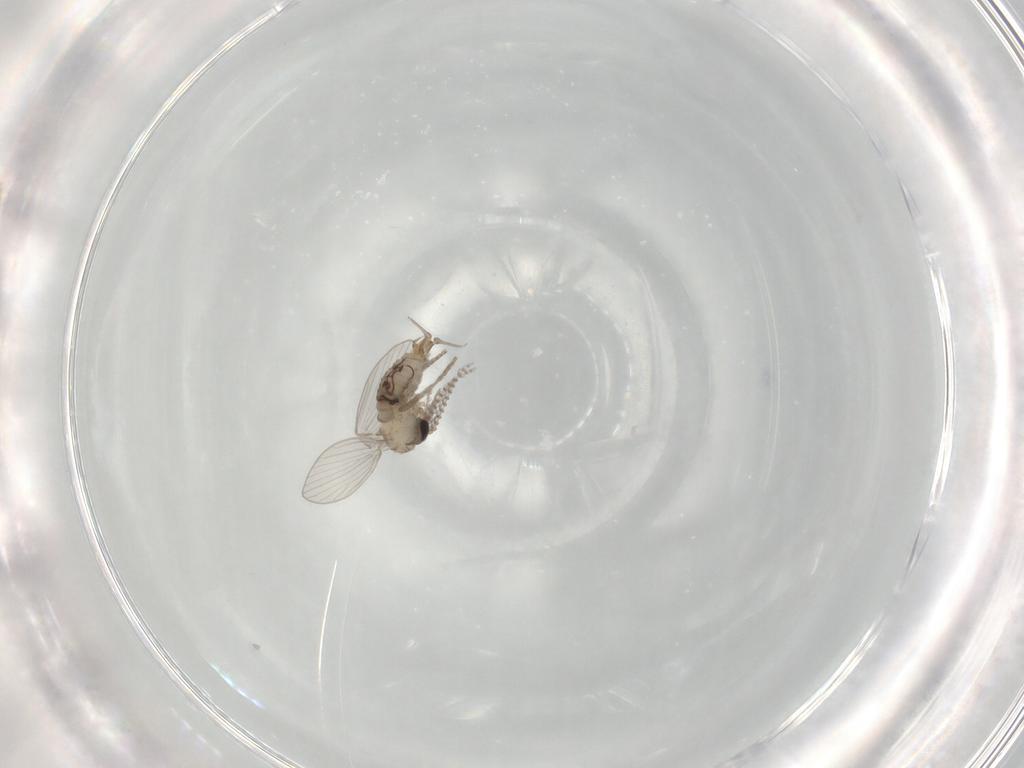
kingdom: Animalia
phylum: Arthropoda
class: Insecta
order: Diptera
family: Psychodidae
